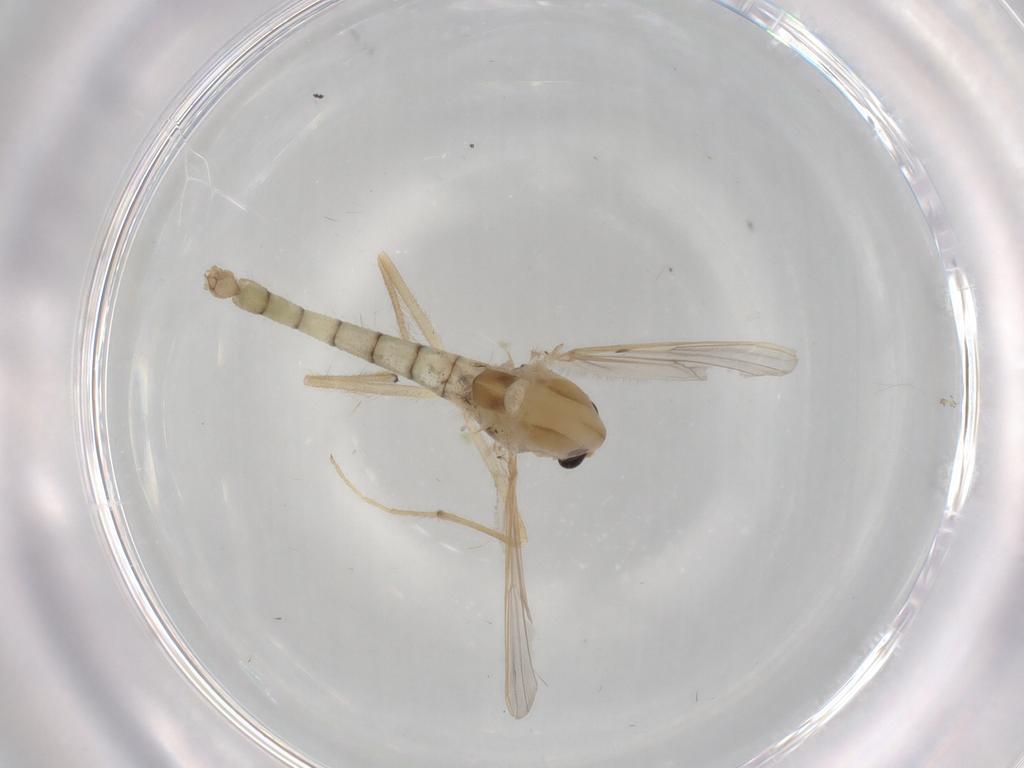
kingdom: Animalia
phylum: Arthropoda
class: Insecta
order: Diptera
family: Chironomidae
